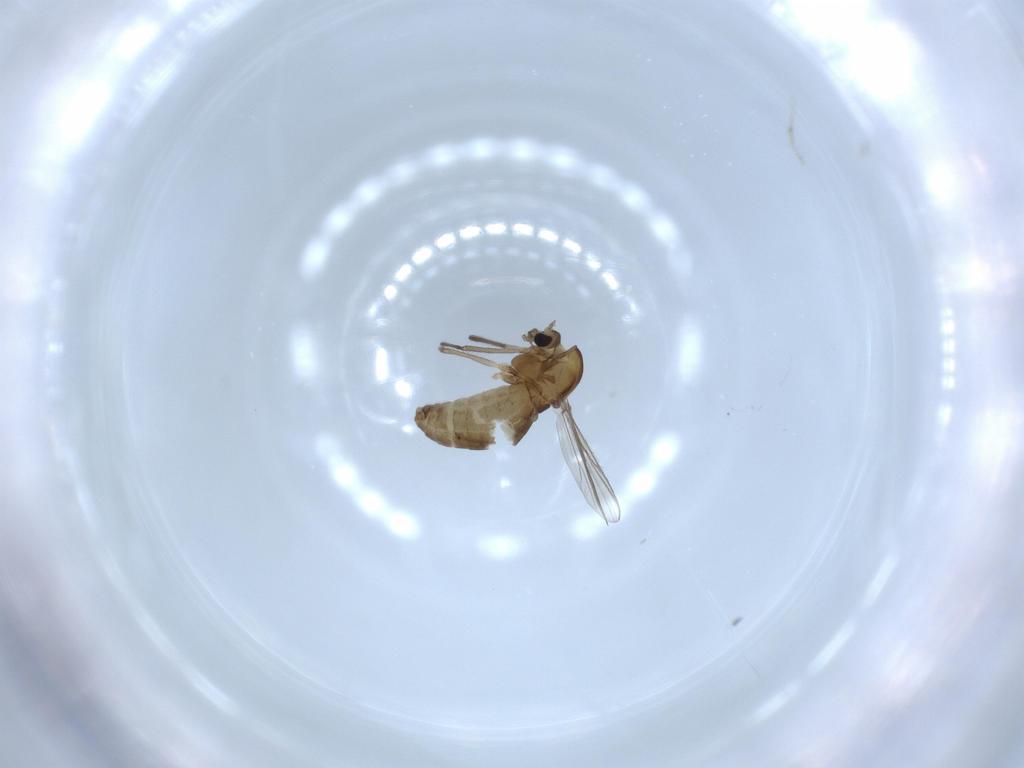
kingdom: Animalia
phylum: Arthropoda
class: Insecta
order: Diptera
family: Chironomidae
